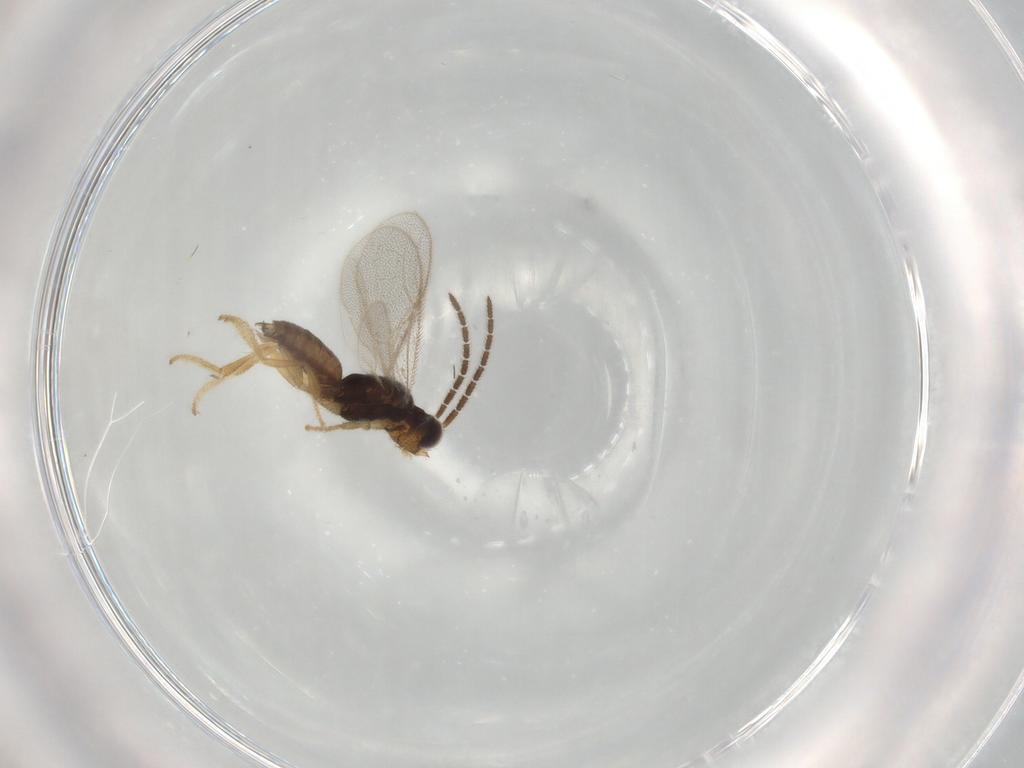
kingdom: Animalia
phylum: Arthropoda
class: Insecta
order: Hymenoptera
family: Dryinidae
